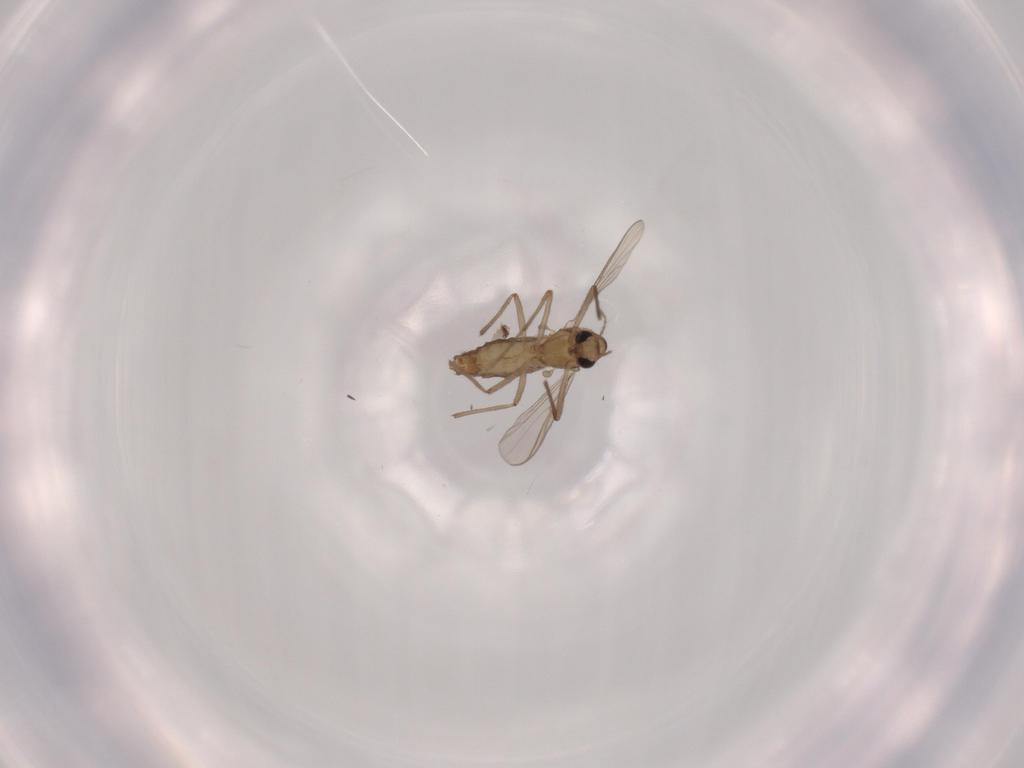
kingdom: Animalia
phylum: Arthropoda
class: Insecta
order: Diptera
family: Chironomidae
